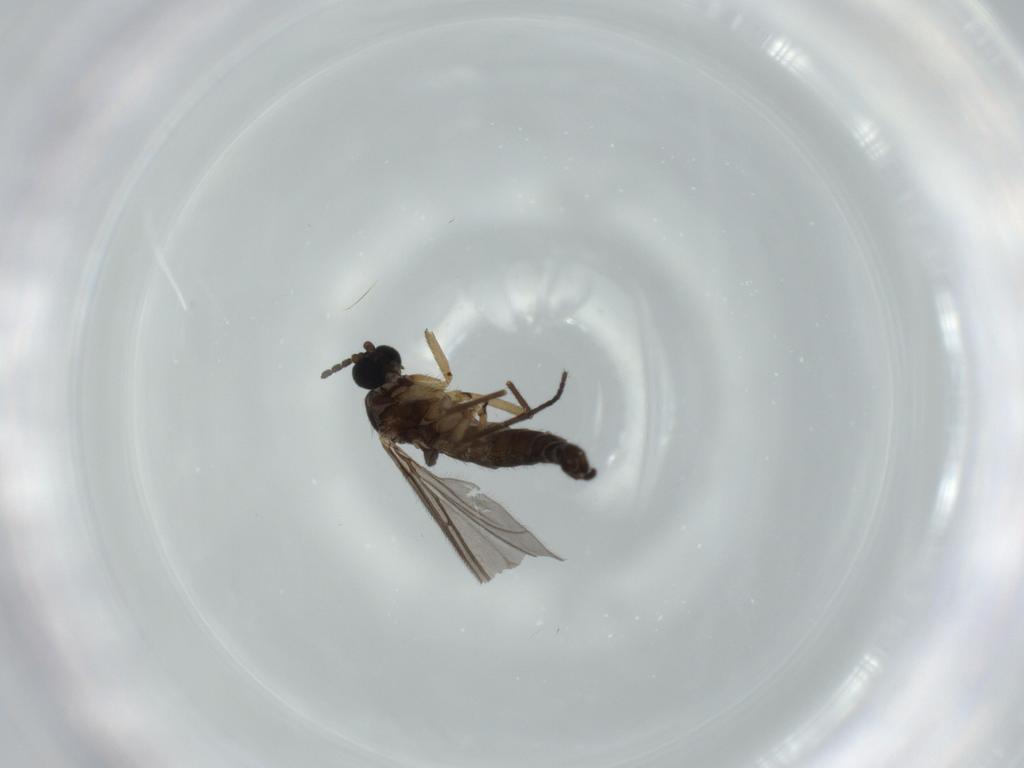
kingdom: Animalia
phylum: Arthropoda
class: Insecta
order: Diptera
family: Sciaridae
